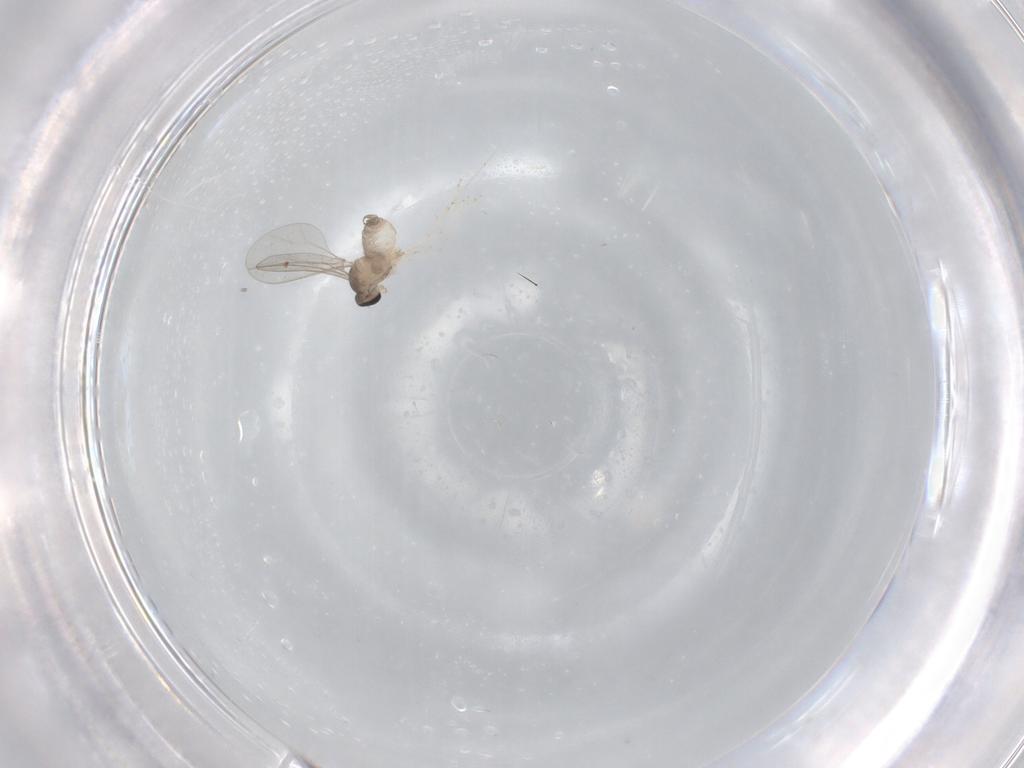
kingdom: Animalia
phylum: Arthropoda
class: Insecta
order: Diptera
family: Cecidomyiidae
